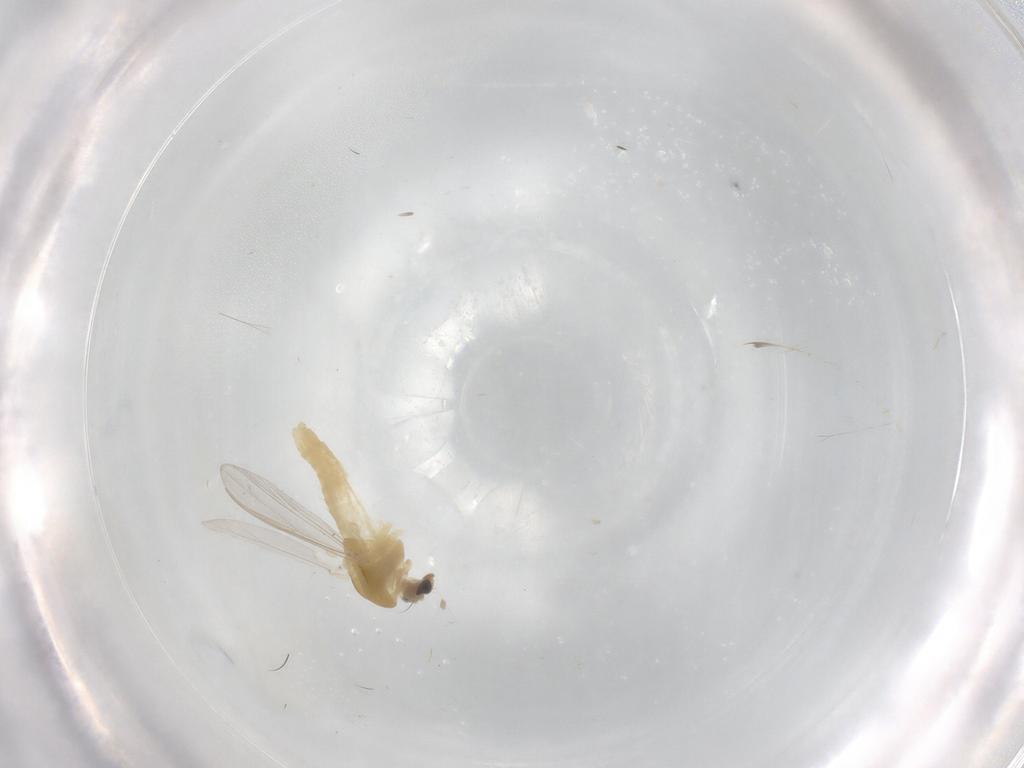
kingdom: Animalia
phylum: Arthropoda
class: Insecta
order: Diptera
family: Chironomidae
